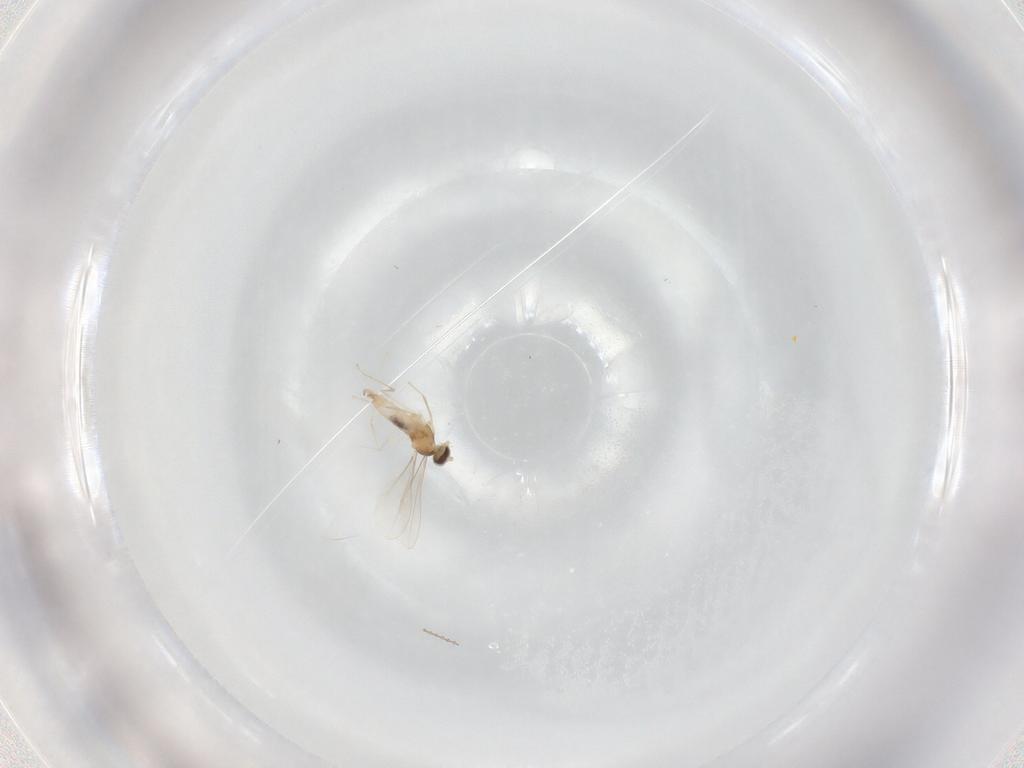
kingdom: Animalia
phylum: Arthropoda
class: Insecta
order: Diptera
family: Cecidomyiidae
